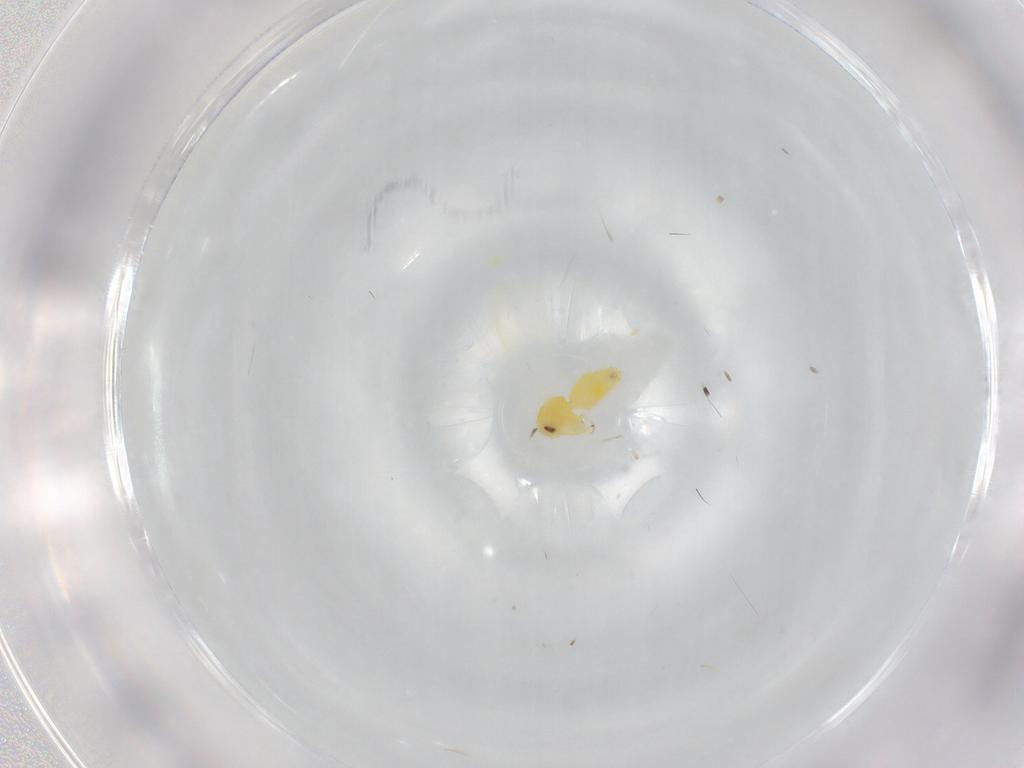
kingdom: Animalia
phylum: Arthropoda
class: Insecta
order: Hemiptera
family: Aleyrodidae
